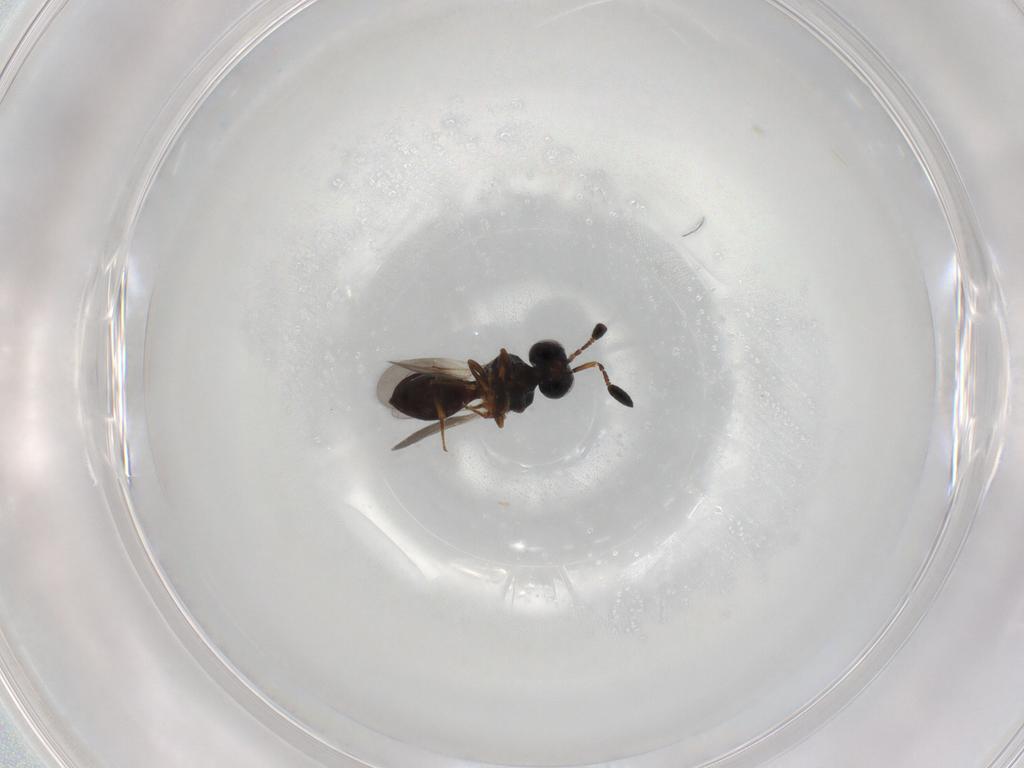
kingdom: Animalia
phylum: Arthropoda
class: Insecta
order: Hymenoptera
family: Scelionidae
